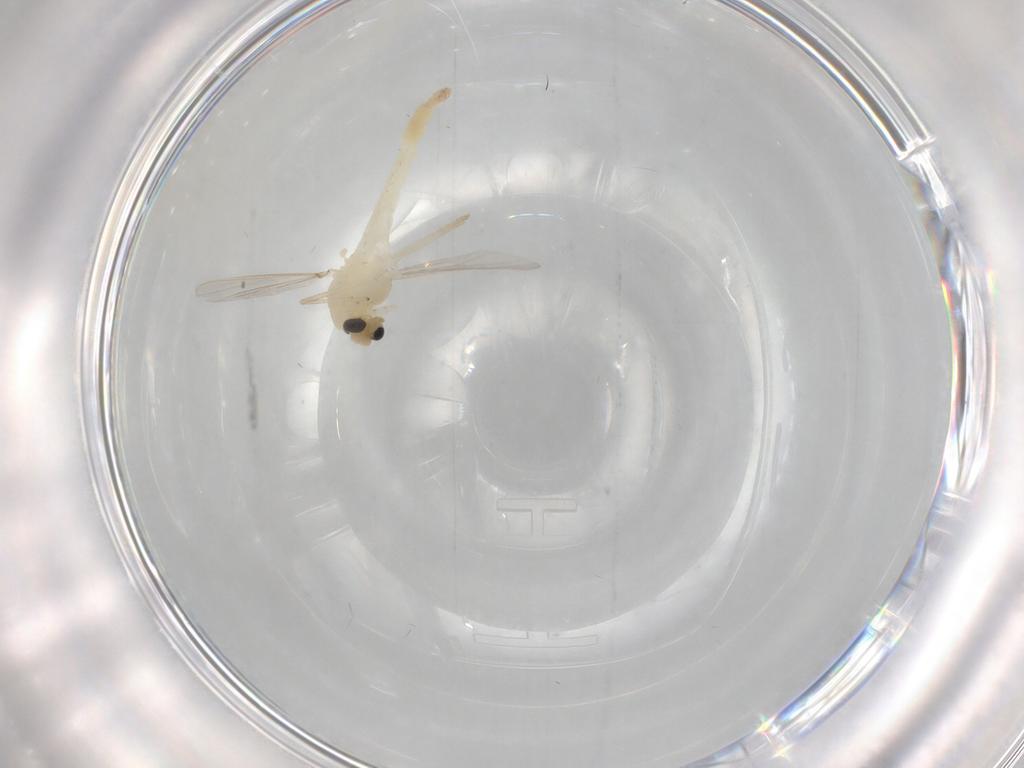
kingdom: Animalia
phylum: Arthropoda
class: Insecta
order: Diptera
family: Chironomidae
